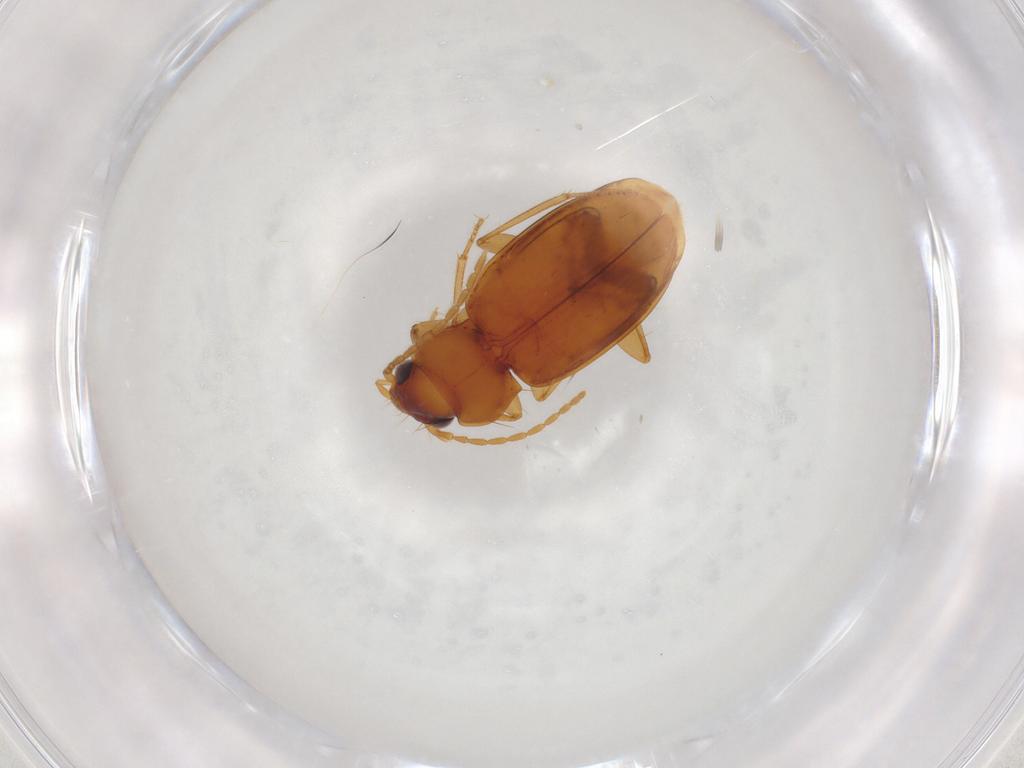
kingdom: Animalia
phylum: Arthropoda
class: Insecta
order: Coleoptera
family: Carabidae
